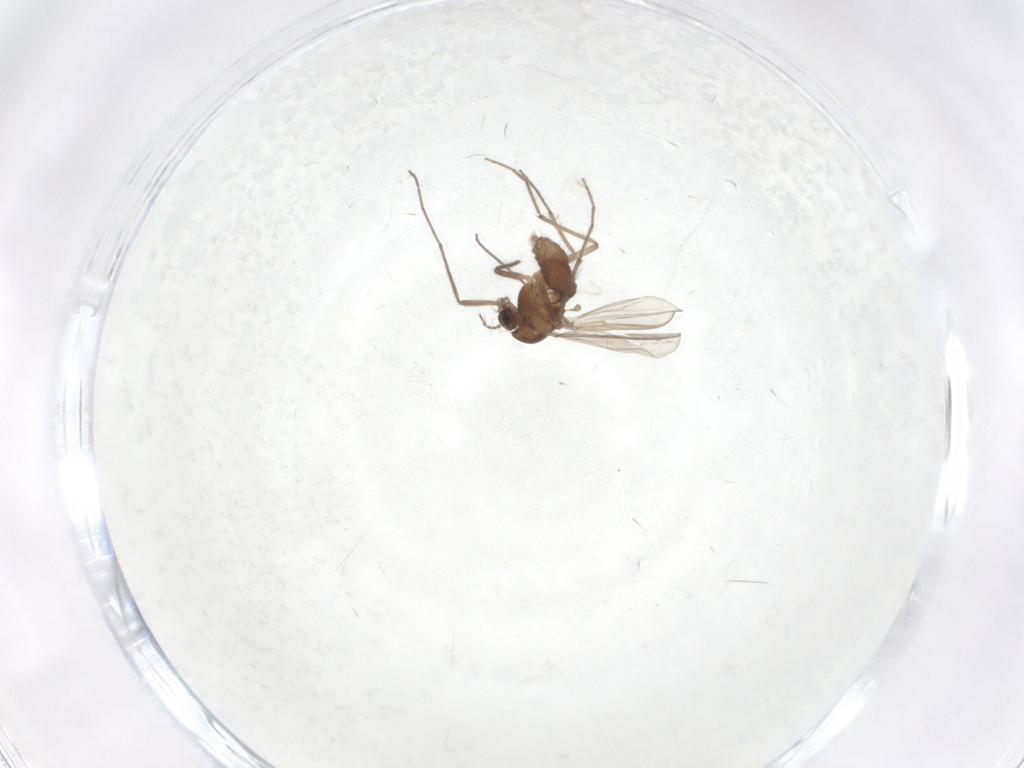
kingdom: Animalia
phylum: Arthropoda
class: Insecta
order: Diptera
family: Chironomidae
